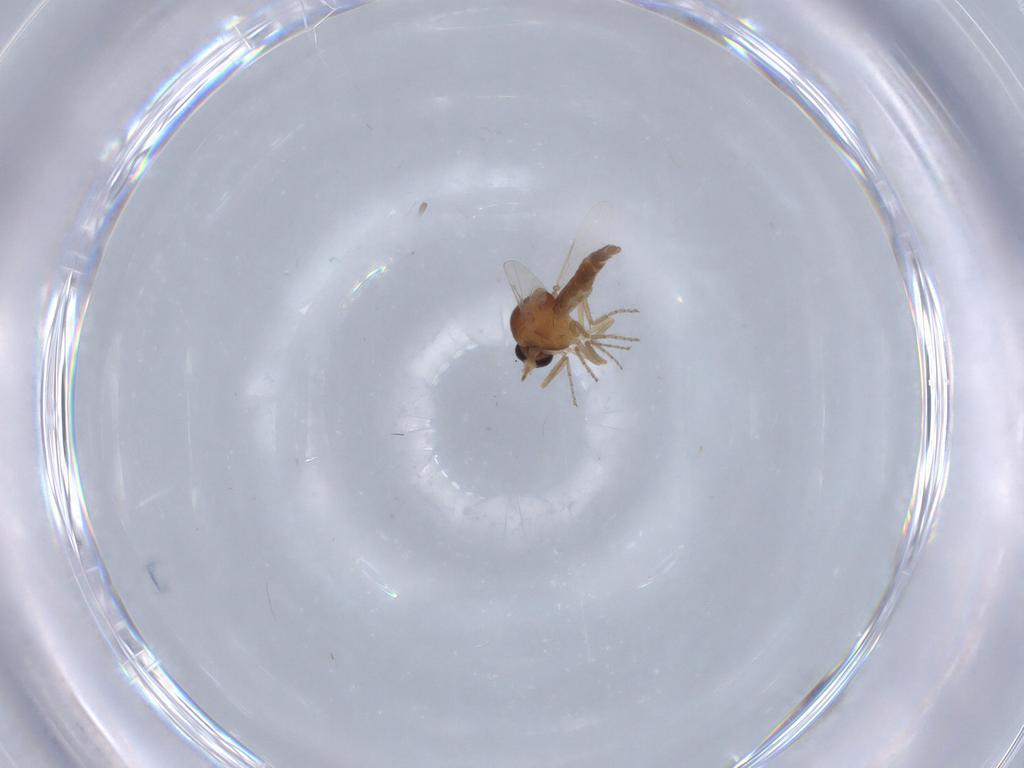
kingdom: Animalia
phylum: Arthropoda
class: Insecta
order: Diptera
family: Ceratopogonidae
